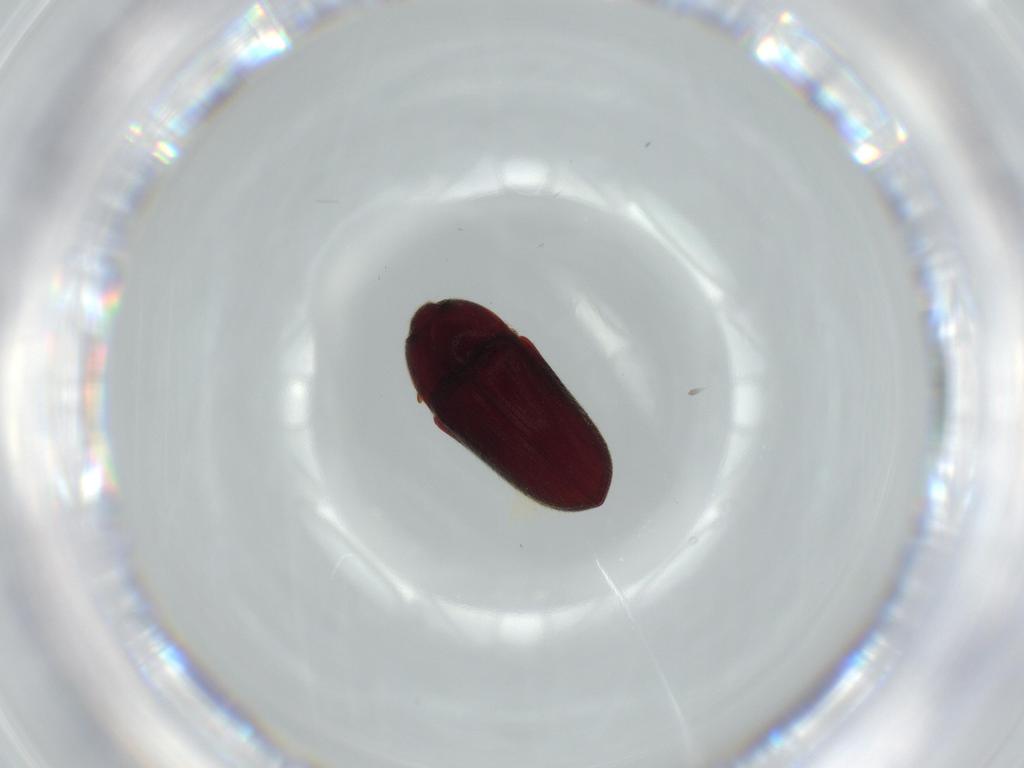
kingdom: Animalia
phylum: Arthropoda
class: Insecta
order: Coleoptera
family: Throscidae
